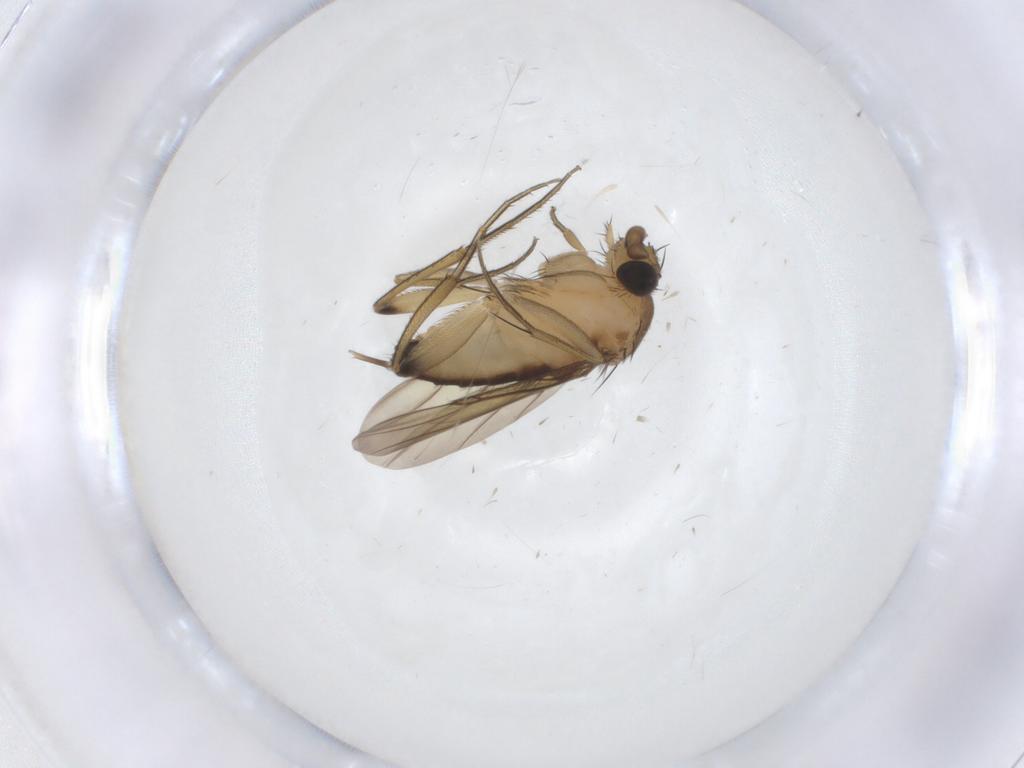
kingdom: Animalia
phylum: Arthropoda
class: Insecta
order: Diptera
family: Phoridae
